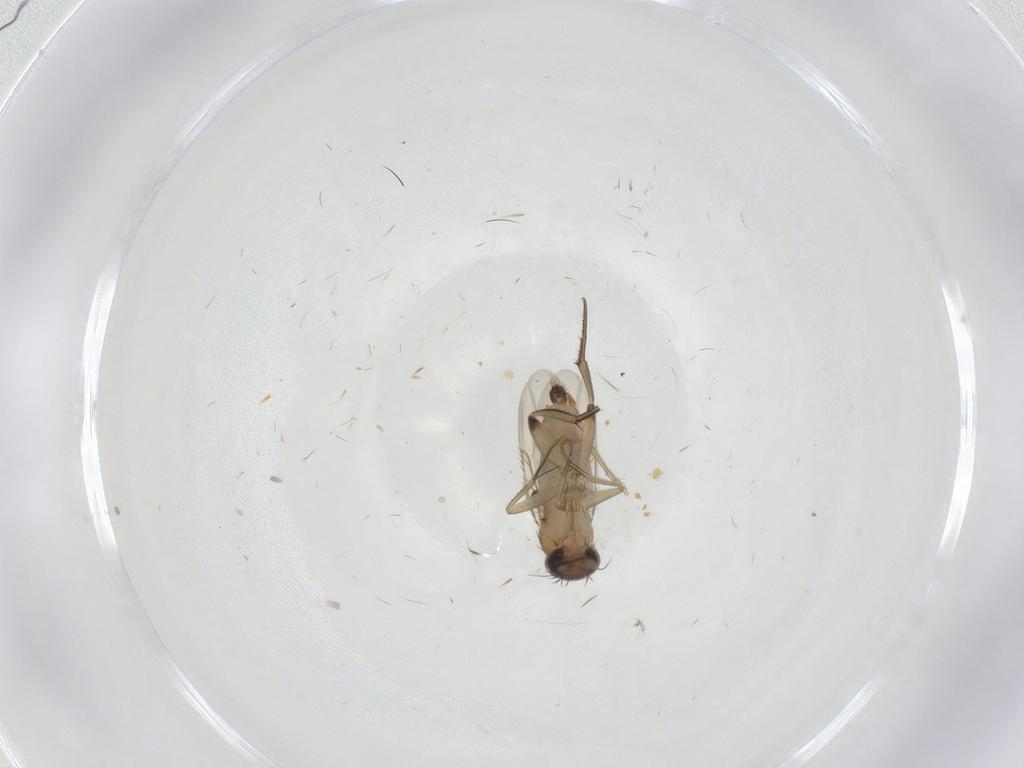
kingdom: Animalia
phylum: Arthropoda
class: Insecta
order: Diptera
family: Phoridae
